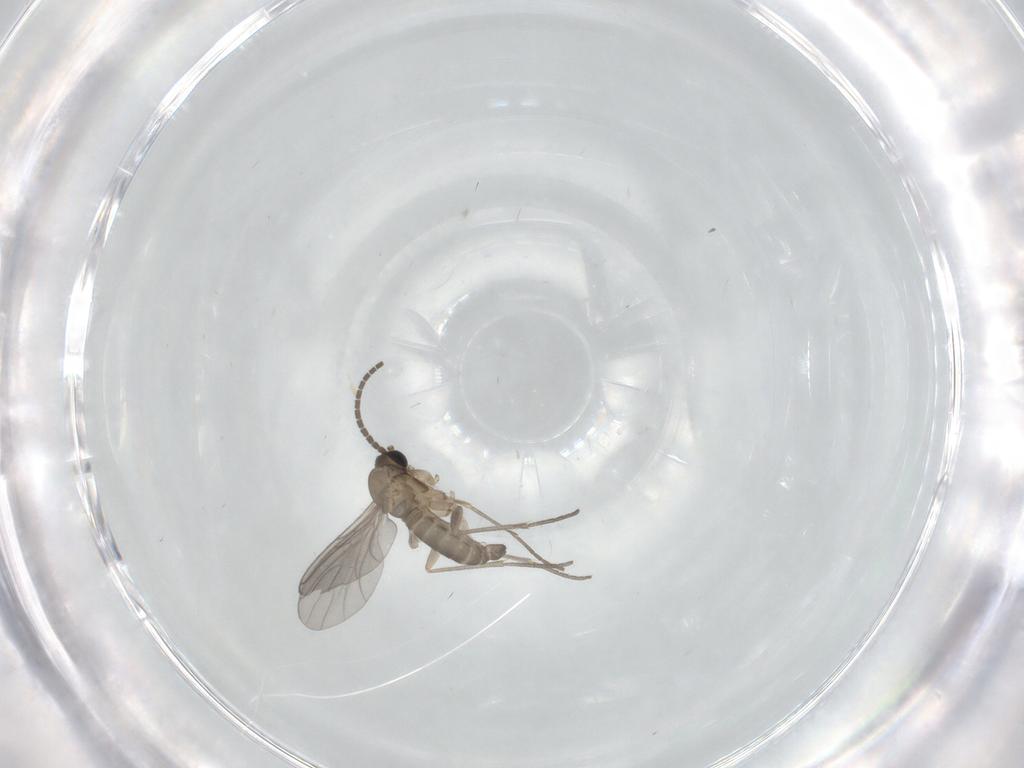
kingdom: Animalia
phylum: Arthropoda
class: Insecta
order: Diptera
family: Sciaridae
